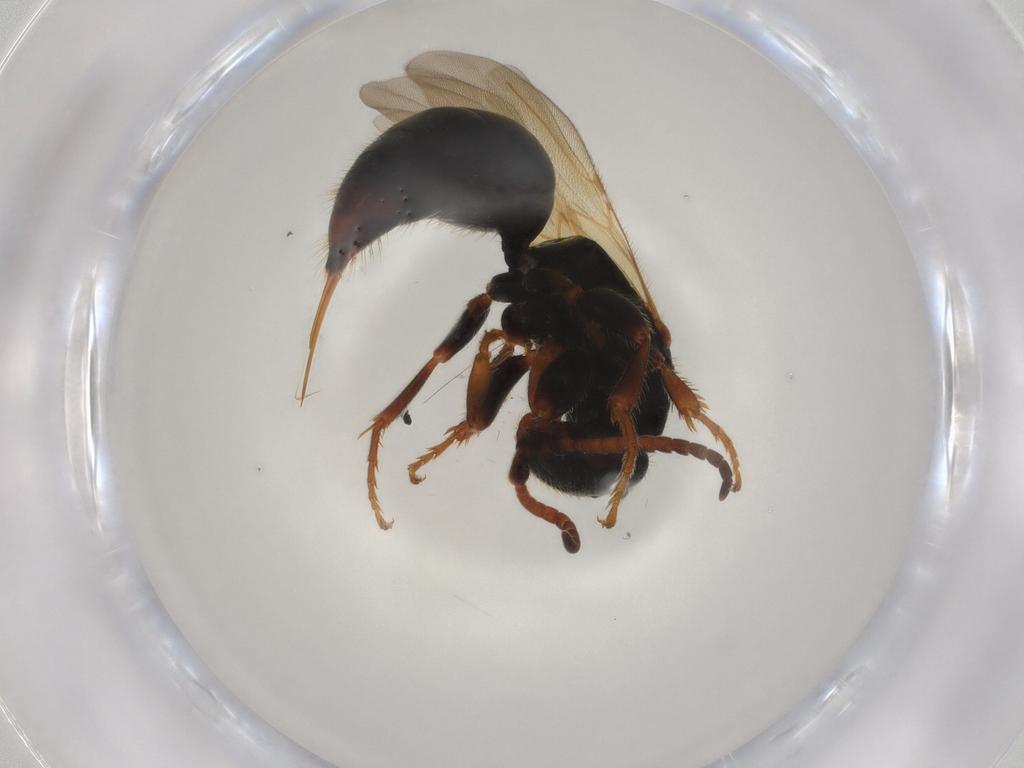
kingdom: Animalia
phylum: Arthropoda
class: Insecta
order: Hymenoptera
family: Bethylidae
